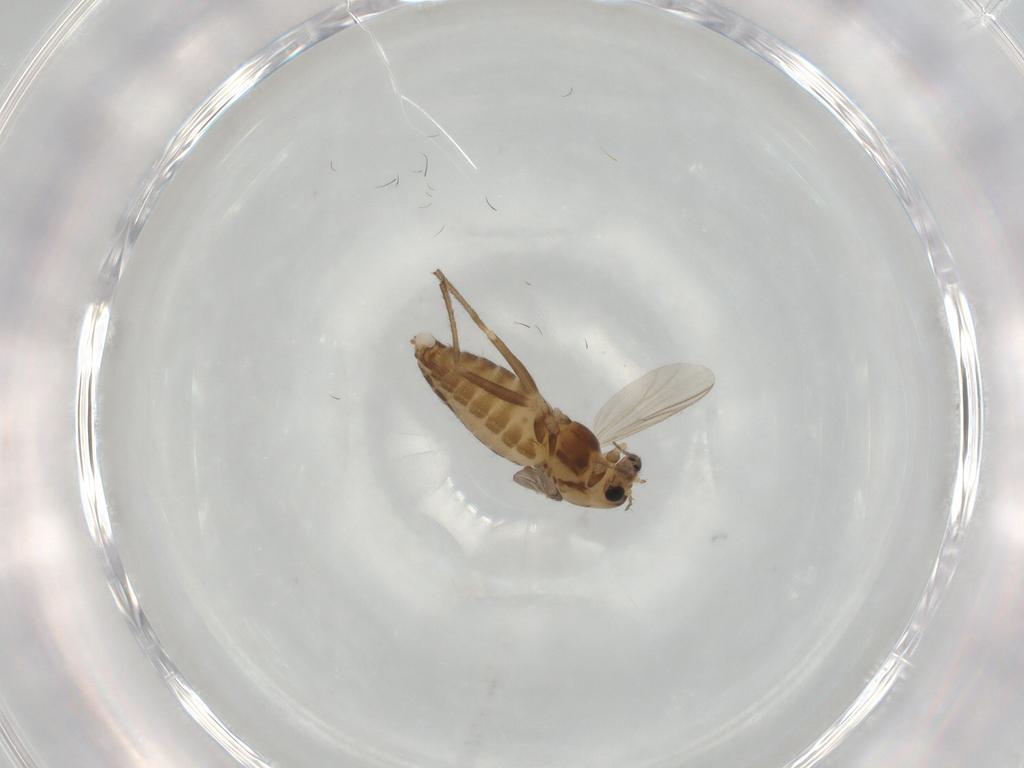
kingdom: Animalia
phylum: Arthropoda
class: Insecta
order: Diptera
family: Chironomidae
